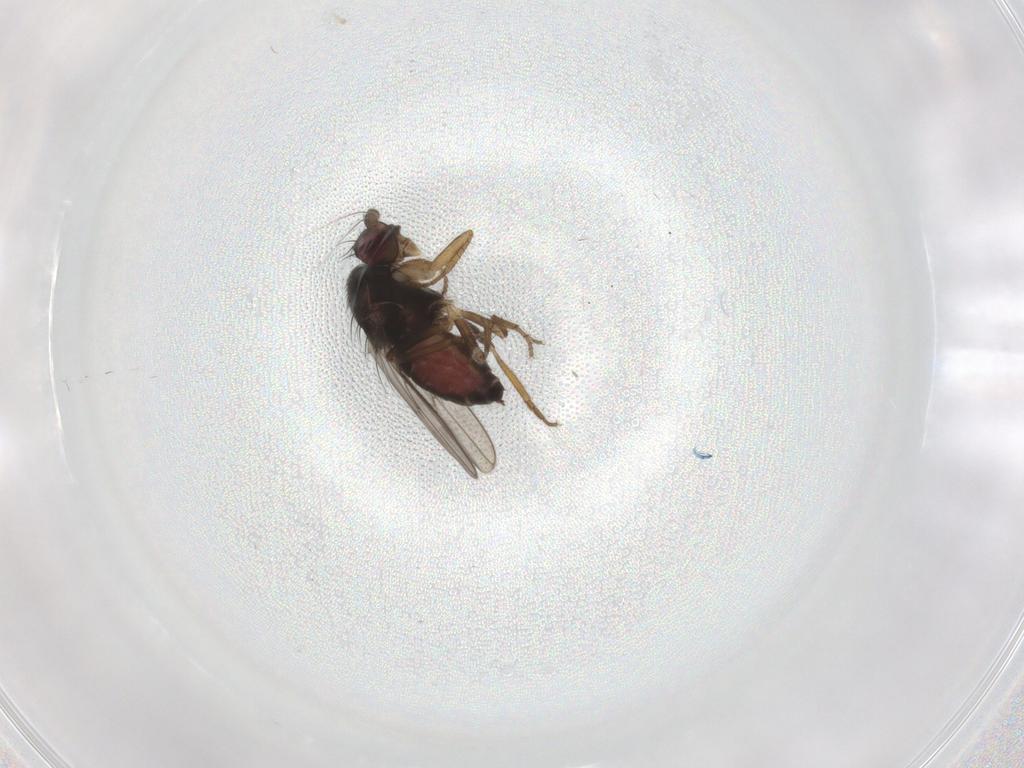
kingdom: Animalia
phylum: Arthropoda
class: Insecta
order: Diptera
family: Sphaeroceridae
